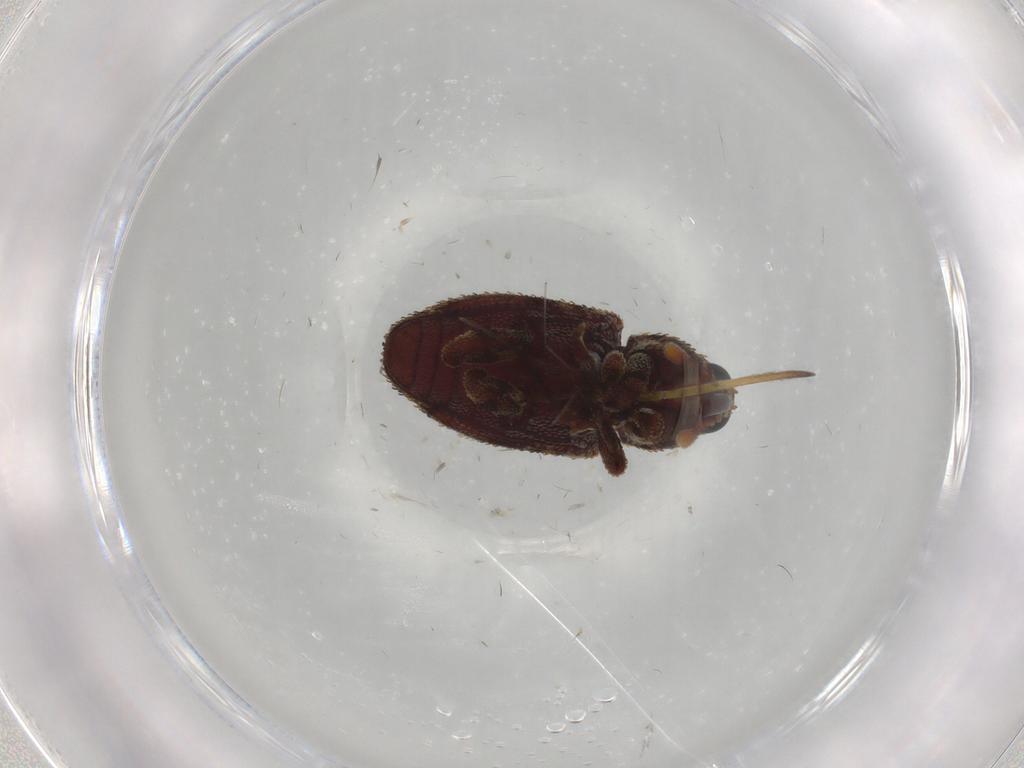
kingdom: Animalia
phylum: Arthropoda
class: Insecta
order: Coleoptera
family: Curculionidae
